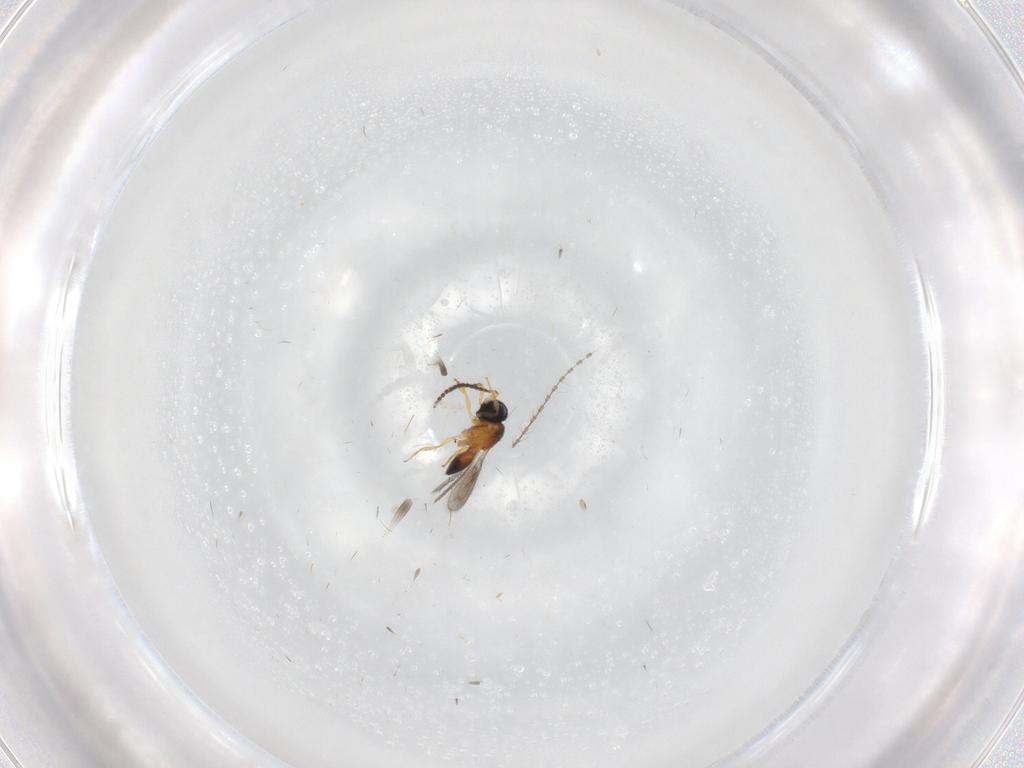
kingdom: Animalia
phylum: Arthropoda
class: Insecta
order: Hymenoptera
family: Scelionidae
